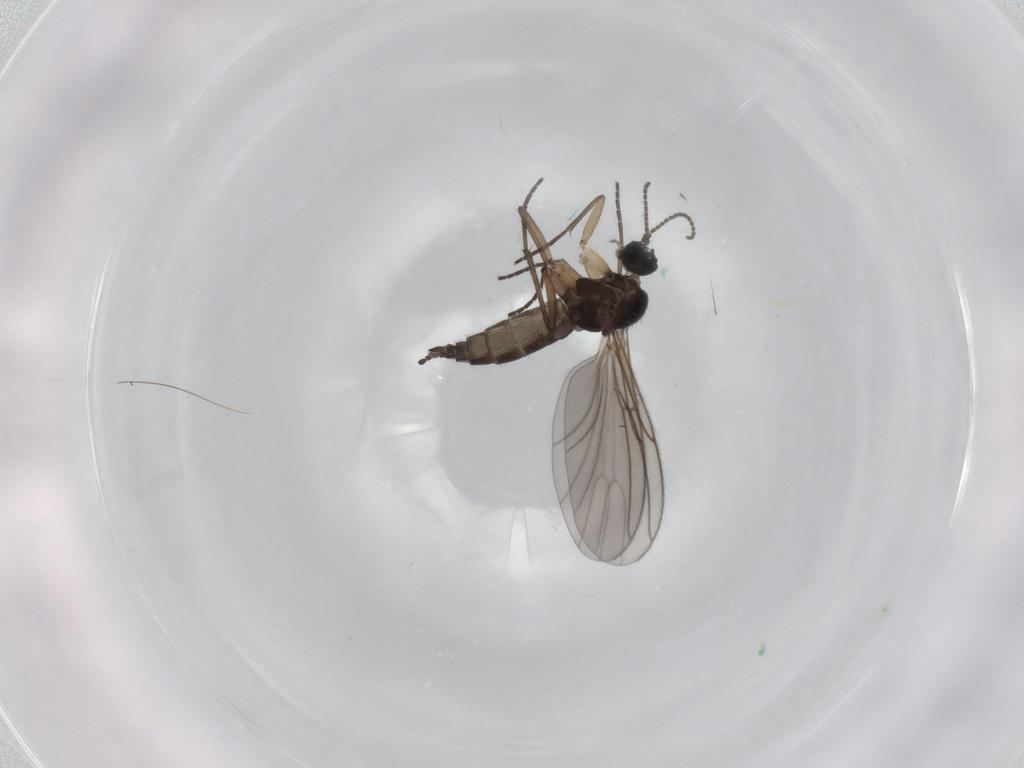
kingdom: Animalia
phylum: Arthropoda
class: Insecta
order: Diptera
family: Sciaridae
